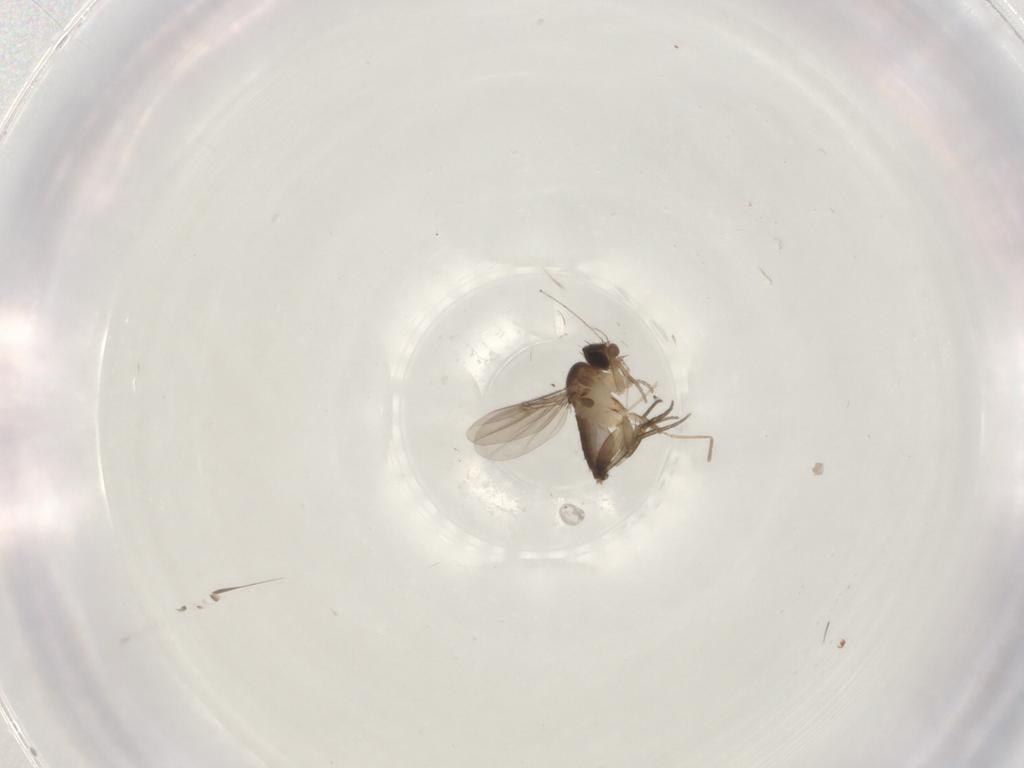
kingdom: Animalia
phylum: Arthropoda
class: Insecta
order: Diptera
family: Phoridae
